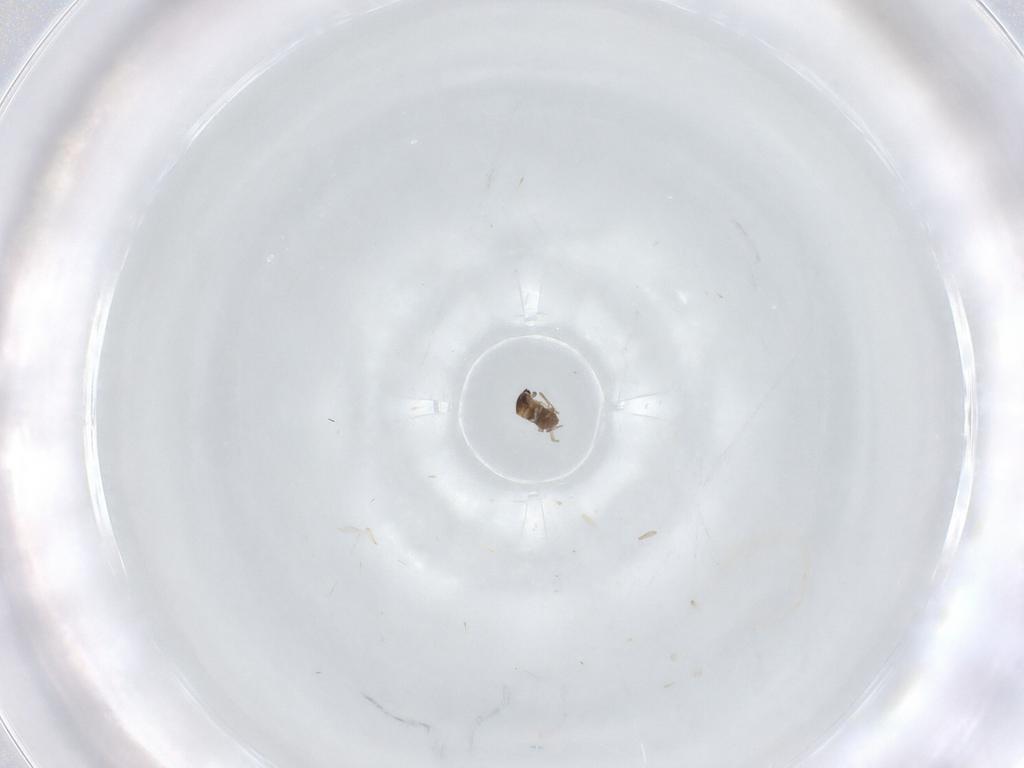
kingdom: Animalia
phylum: Arthropoda
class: Insecta
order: Diptera
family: Cecidomyiidae
